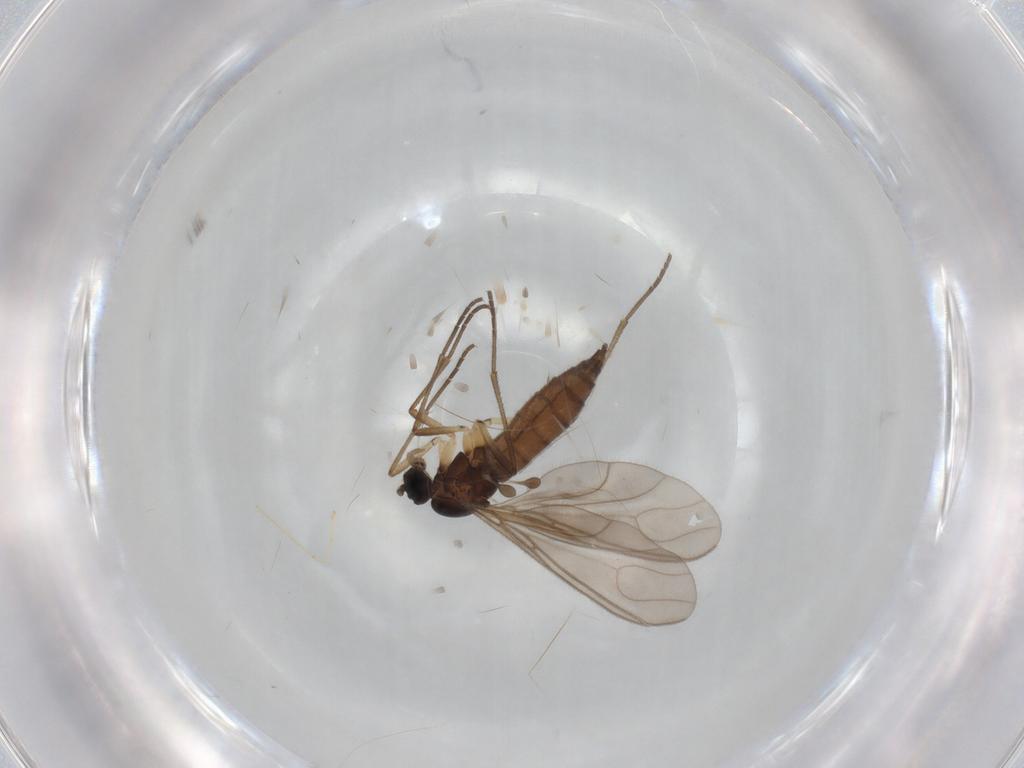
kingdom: Animalia
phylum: Arthropoda
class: Insecta
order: Diptera
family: Sciaridae
